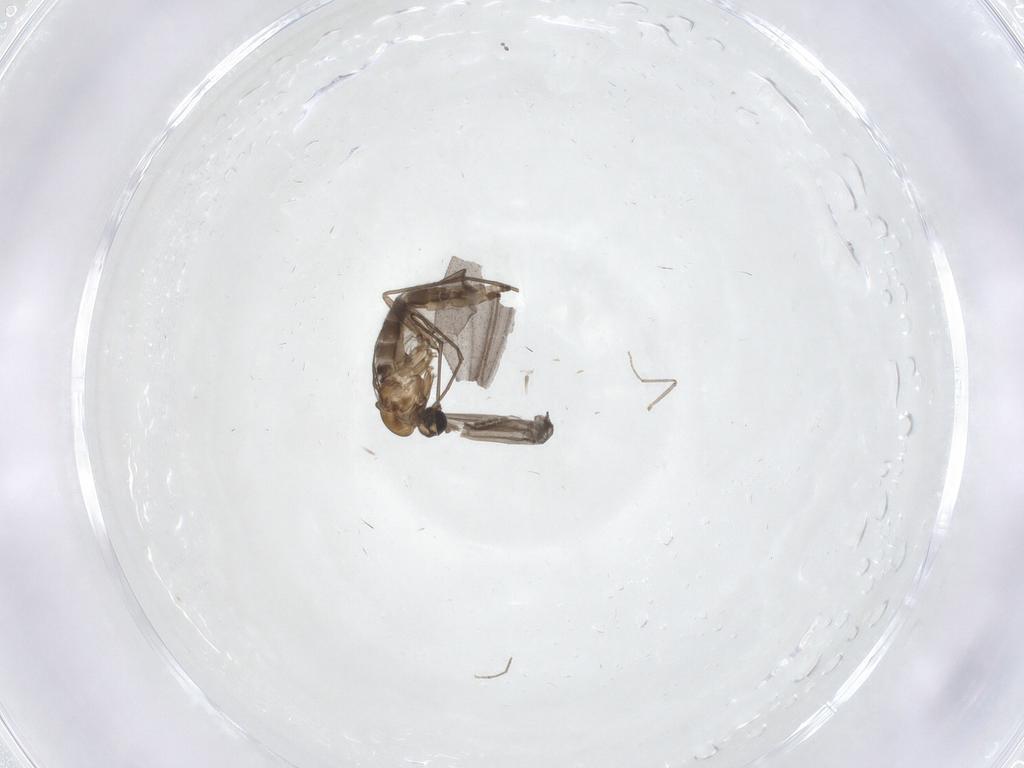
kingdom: Animalia
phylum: Arthropoda
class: Insecta
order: Diptera
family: Sciaridae
